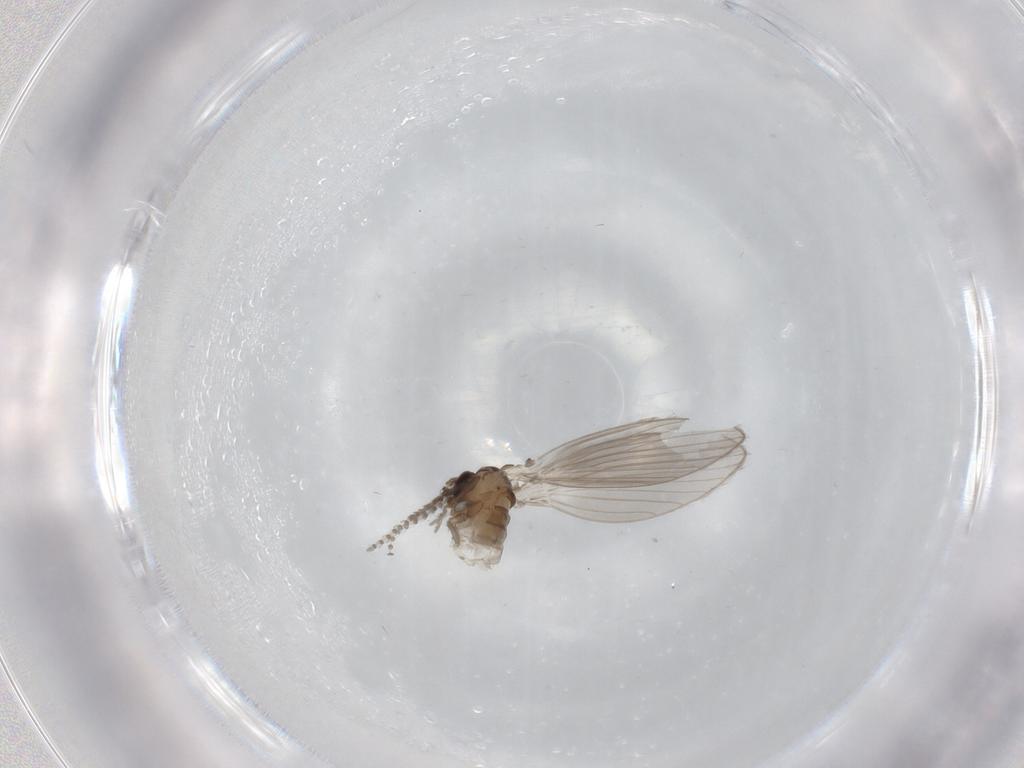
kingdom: Animalia
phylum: Arthropoda
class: Insecta
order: Diptera
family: Psychodidae
